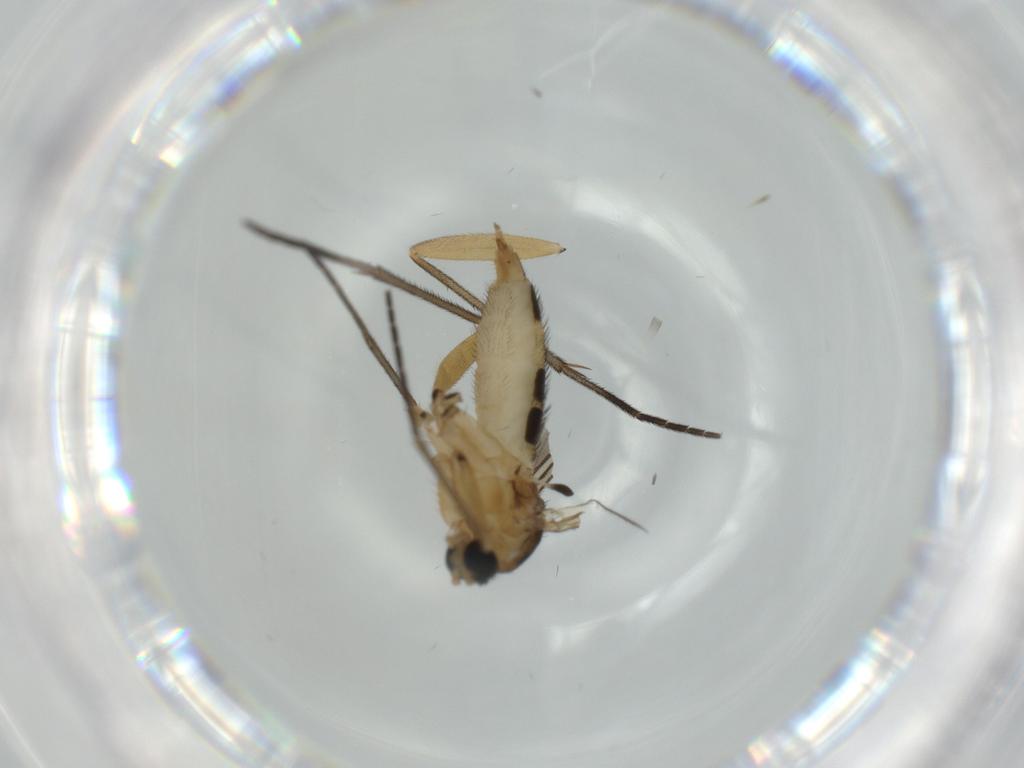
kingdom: Animalia
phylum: Arthropoda
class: Insecta
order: Diptera
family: Sciaridae
